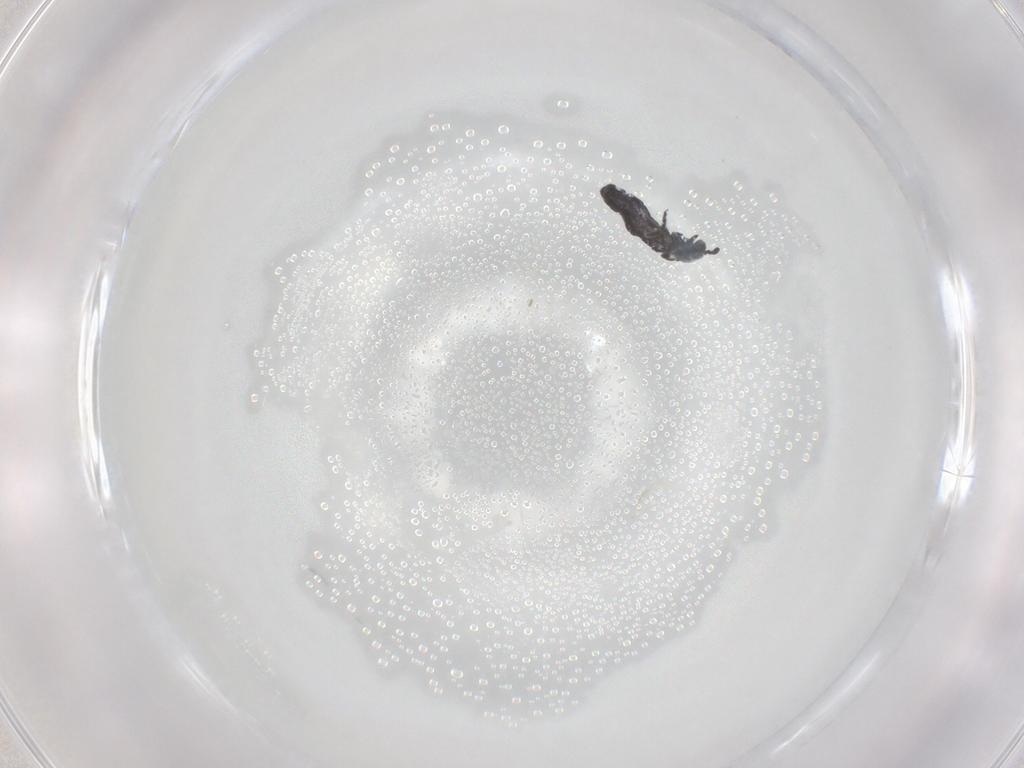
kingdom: Animalia
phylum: Arthropoda
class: Collembola
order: Poduromorpha
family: Hypogastruridae
